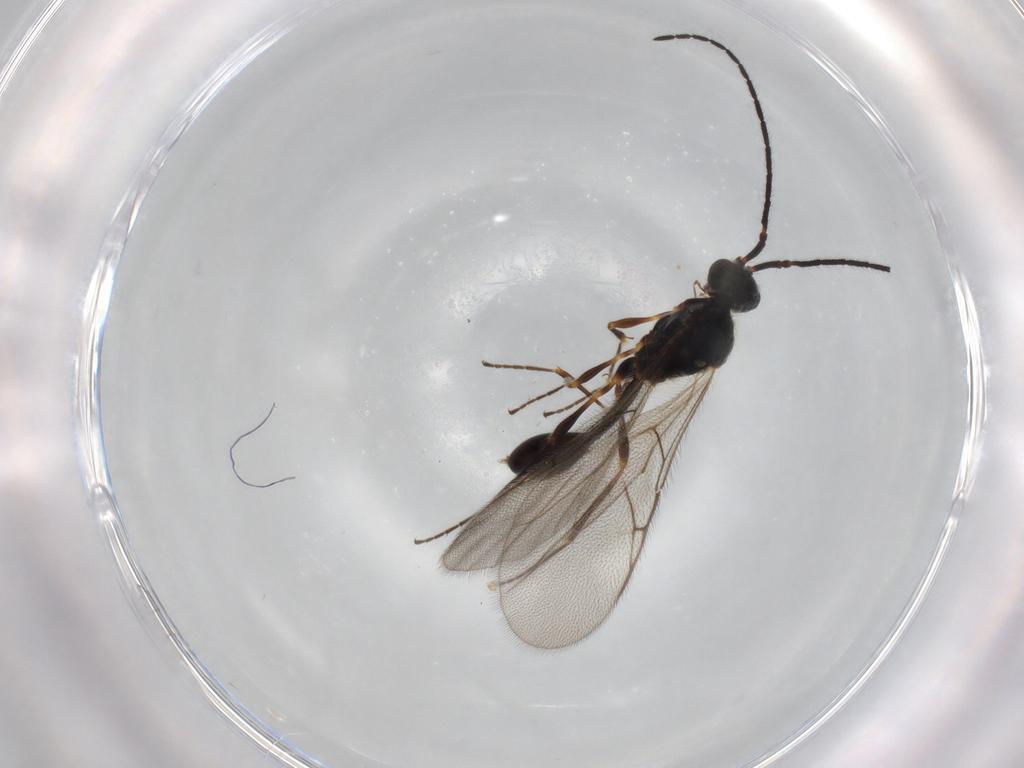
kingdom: Animalia
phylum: Arthropoda
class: Insecta
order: Hymenoptera
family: Diapriidae
